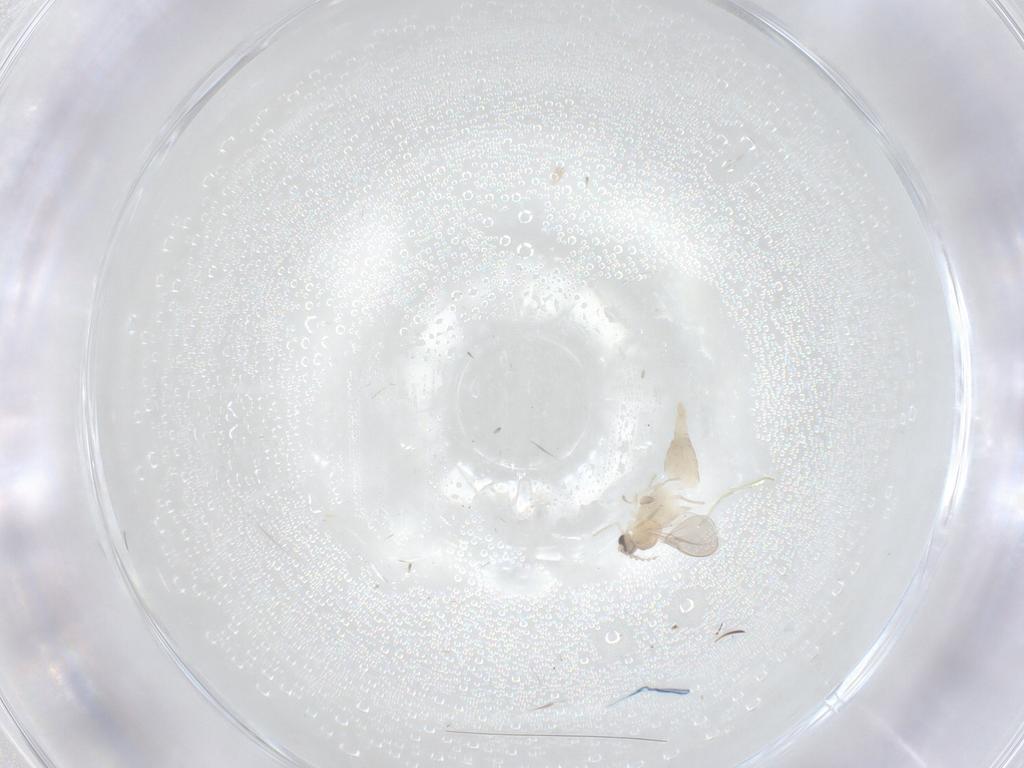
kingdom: Animalia
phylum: Arthropoda
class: Insecta
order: Diptera
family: Cecidomyiidae
